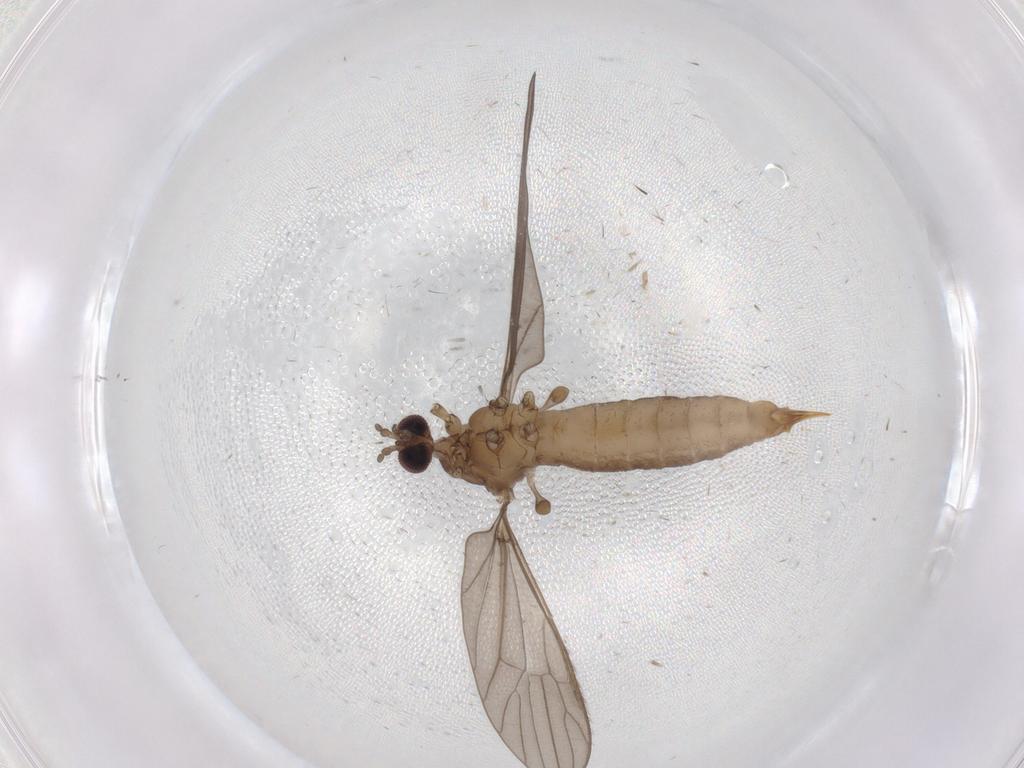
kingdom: Animalia
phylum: Arthropoda
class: Insecta
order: Diptera
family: Limoniidae
